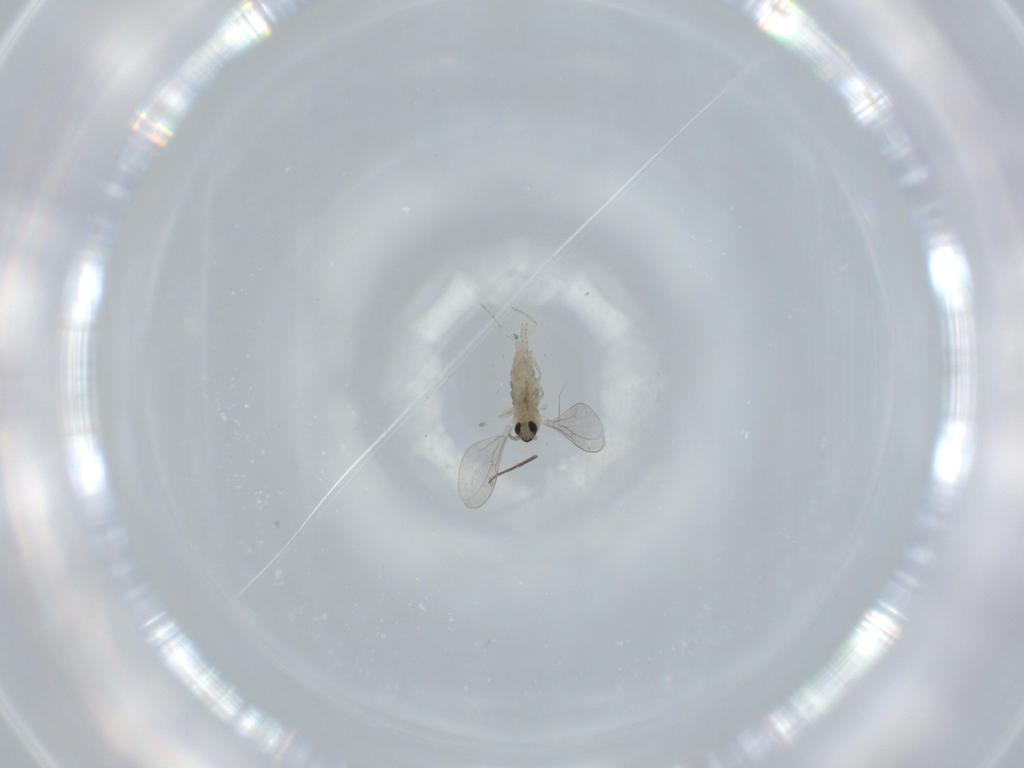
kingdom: Animalia
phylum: Arthropoda
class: Insecta
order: Diptera
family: Cecidomyiidae
